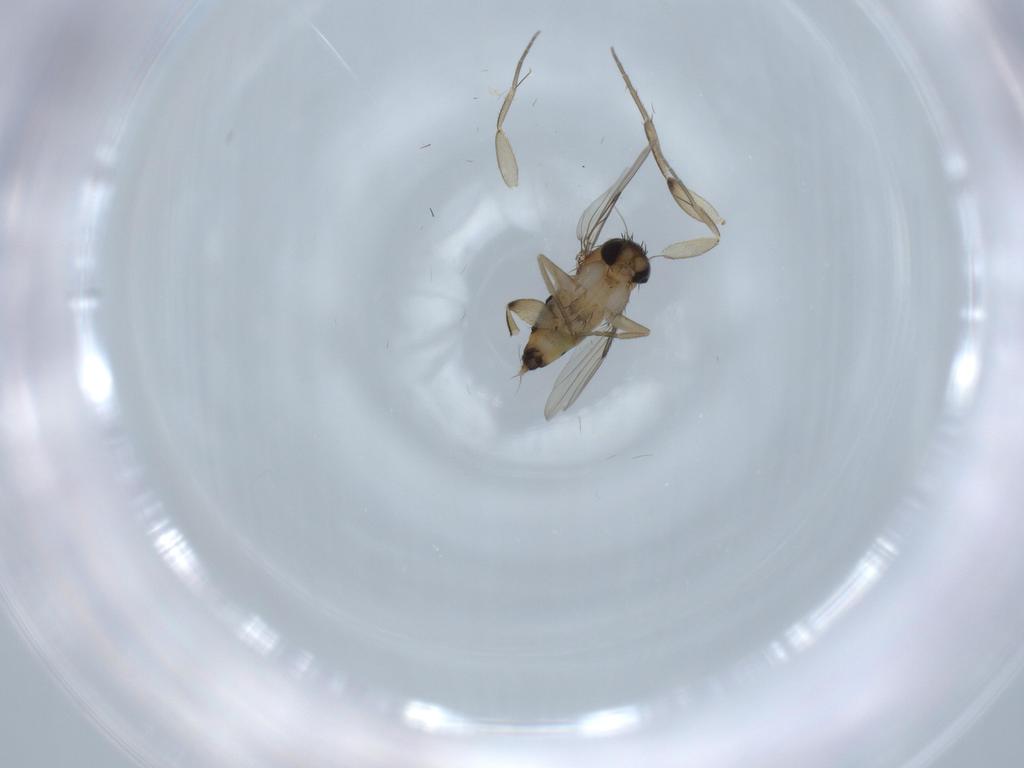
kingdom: Animalia
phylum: Arthropoda
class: Insecta
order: Diptera
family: Phoridae
